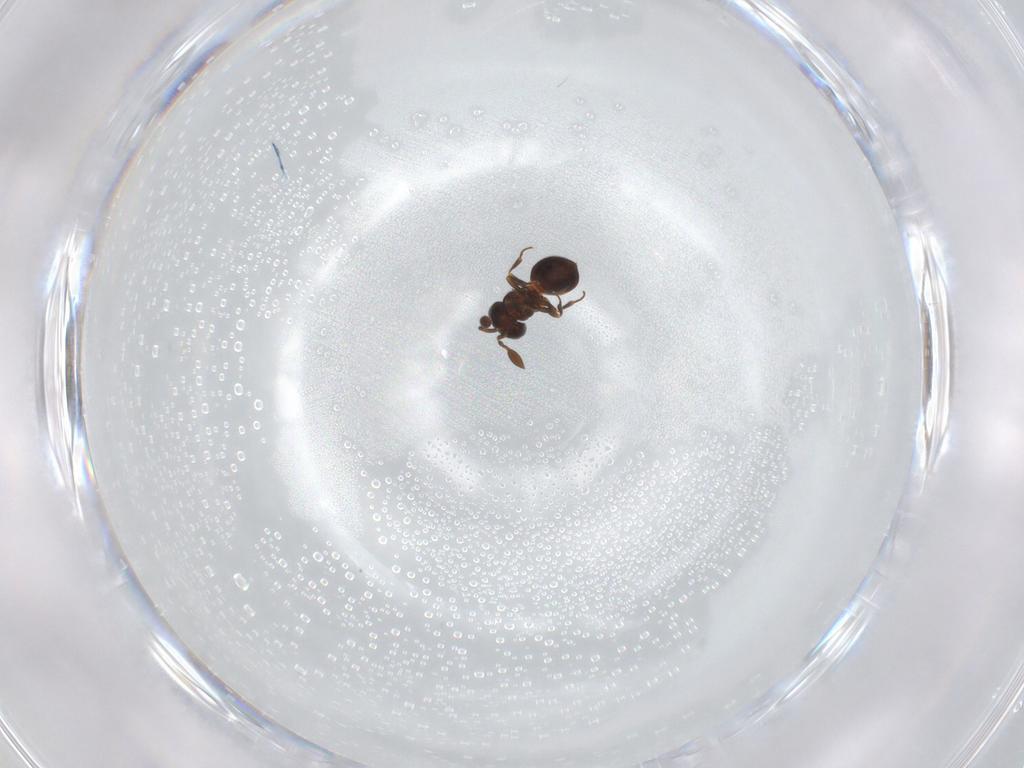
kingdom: Animalia
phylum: Arthropoda
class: Insecta
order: Hymenoptera
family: Scelionidae
